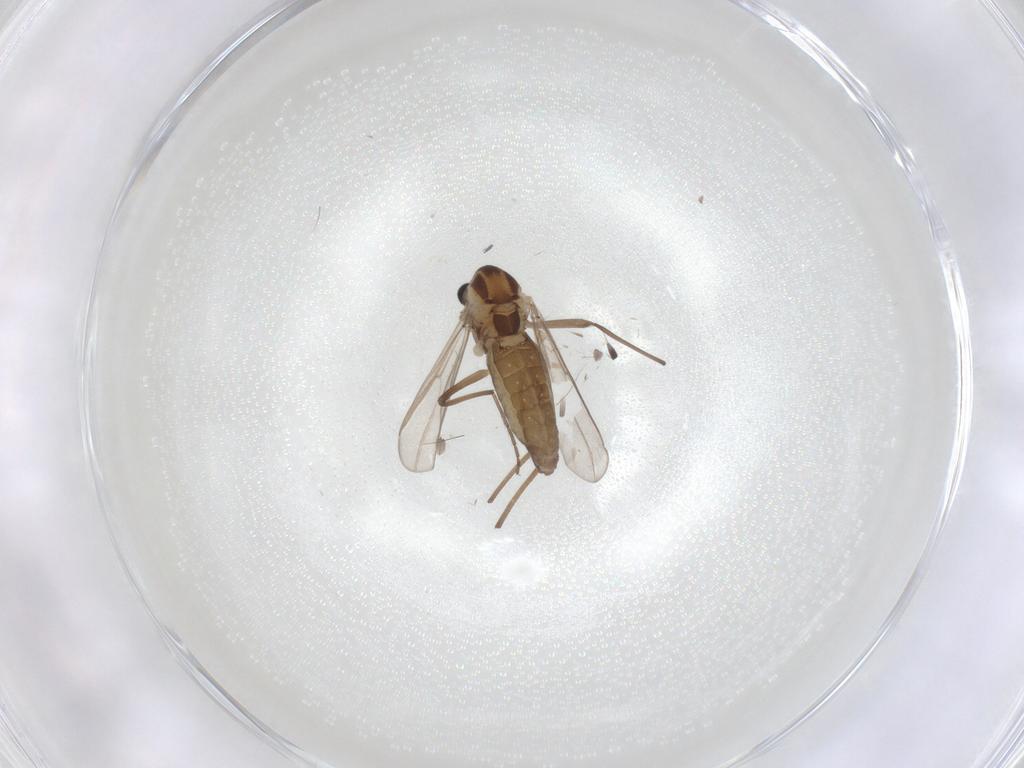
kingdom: Animalia
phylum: Arthropoda
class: Insecta
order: Diptera
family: Chironomidae
